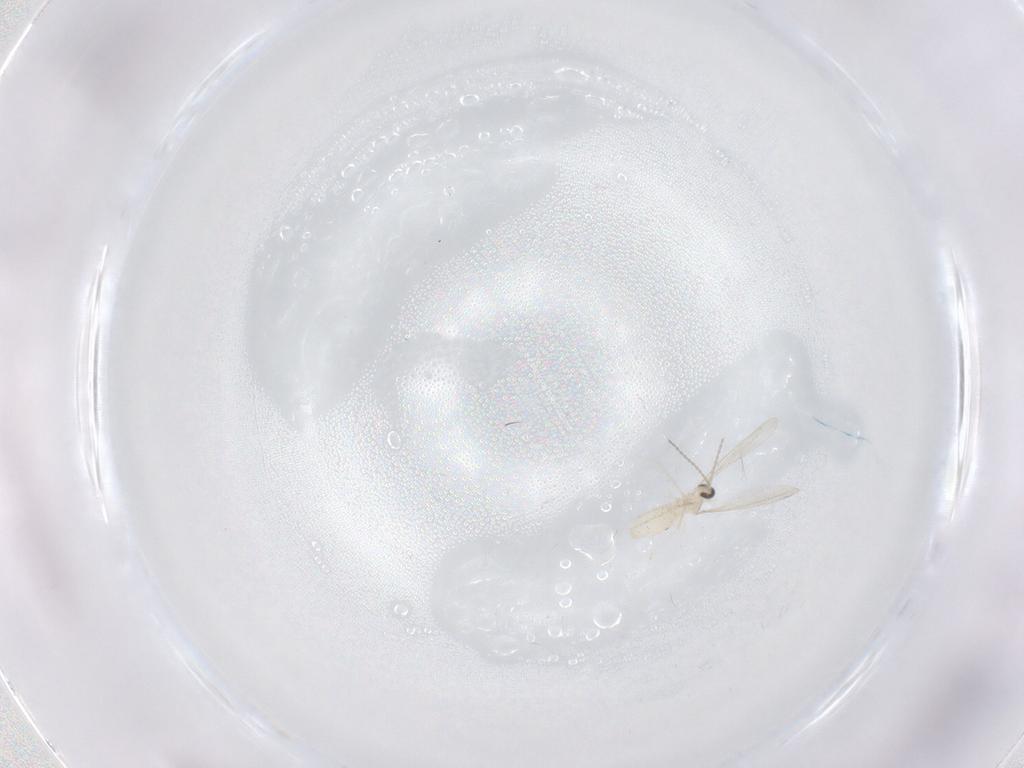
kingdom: Animalia
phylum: Arthropoda
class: Insecta
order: Diptera
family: Cecidomyiidae
